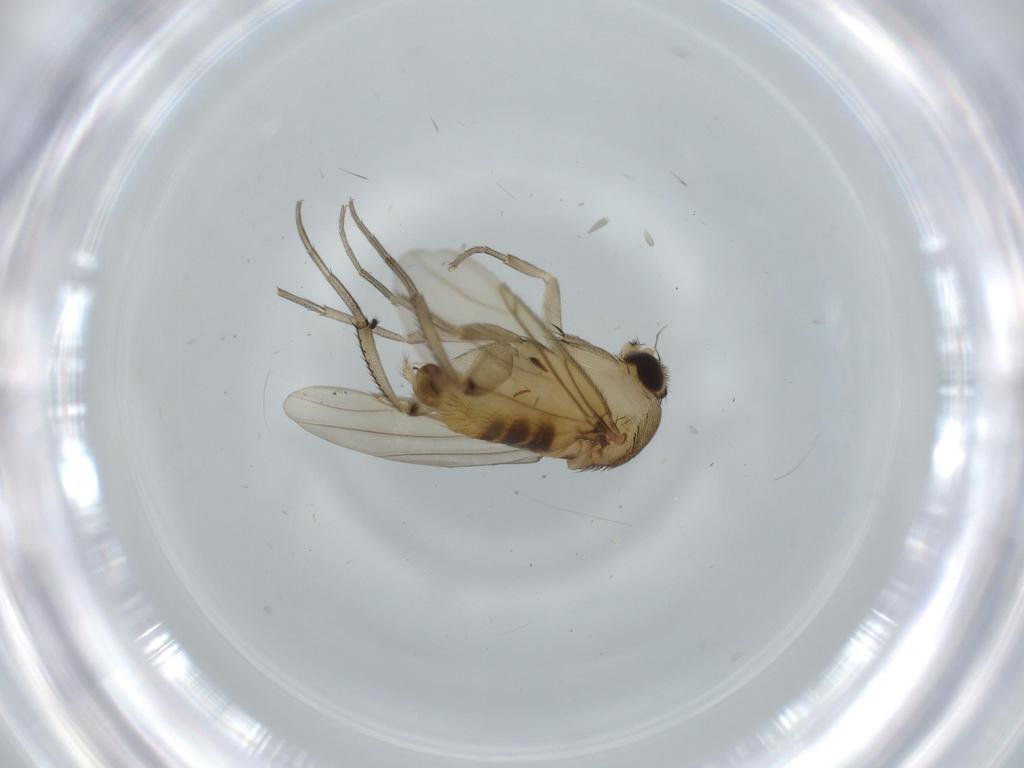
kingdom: Animalia
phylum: Arthropoda
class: Insecta
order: Diptera
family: Phoridae
